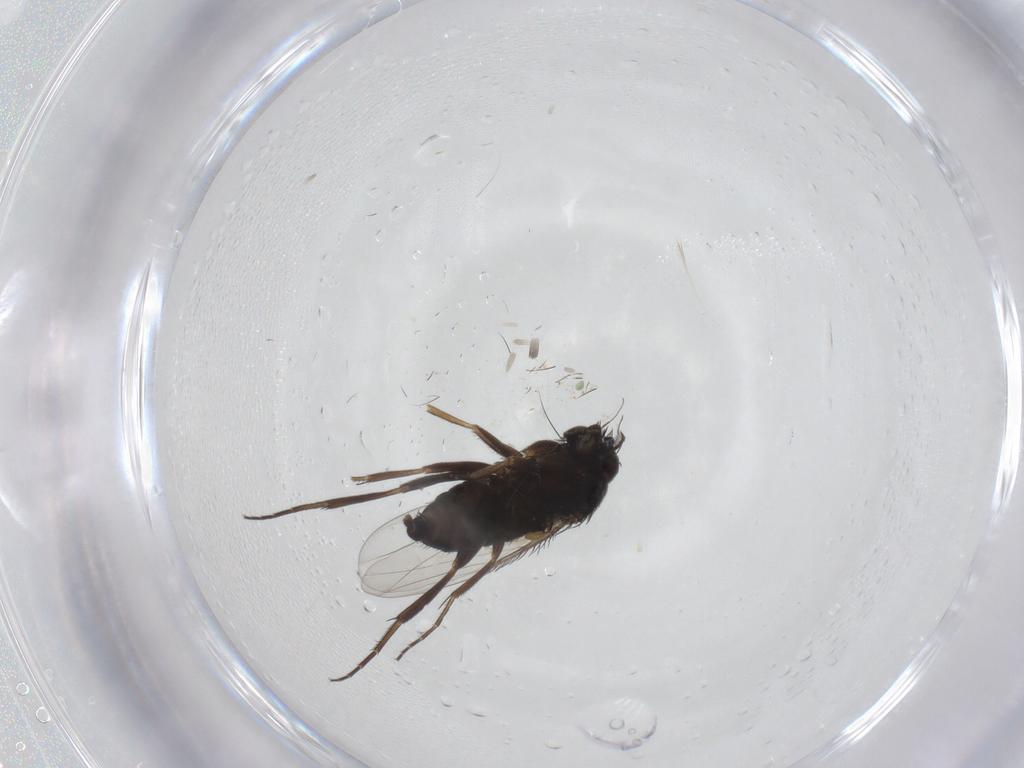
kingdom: Animalia
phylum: Arthropoda
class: Insecta
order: Diptera
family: Phoridae
